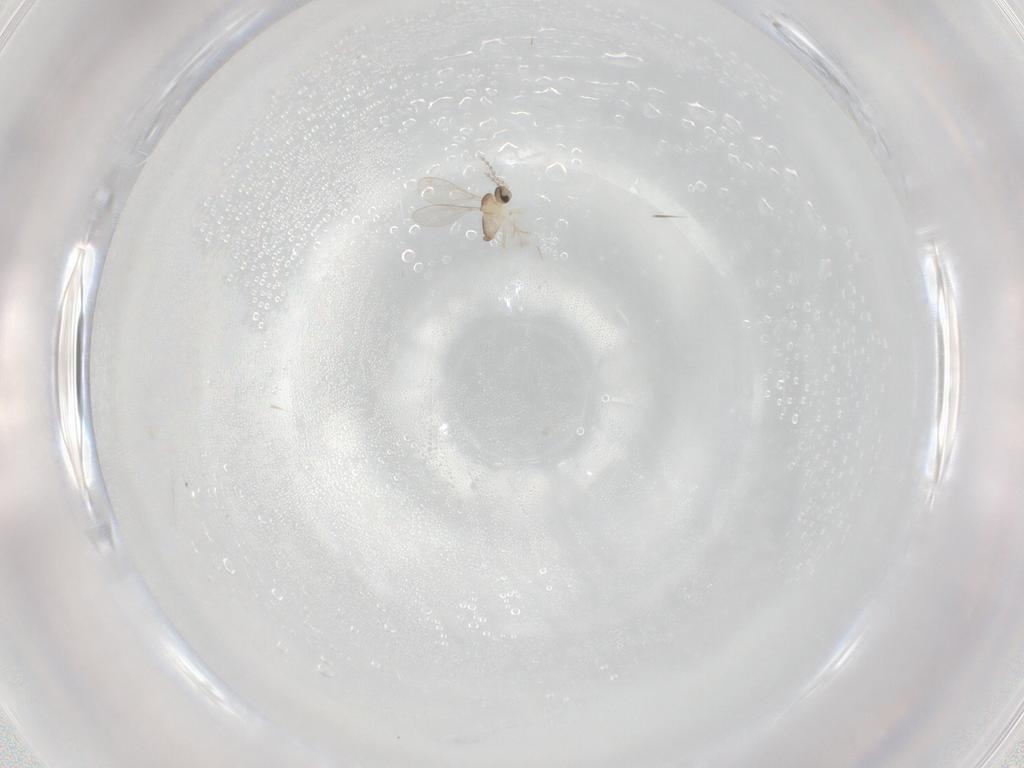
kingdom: Animalia
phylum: Arthropoda
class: Insecta
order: Diptera
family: Cecidomyiidae
